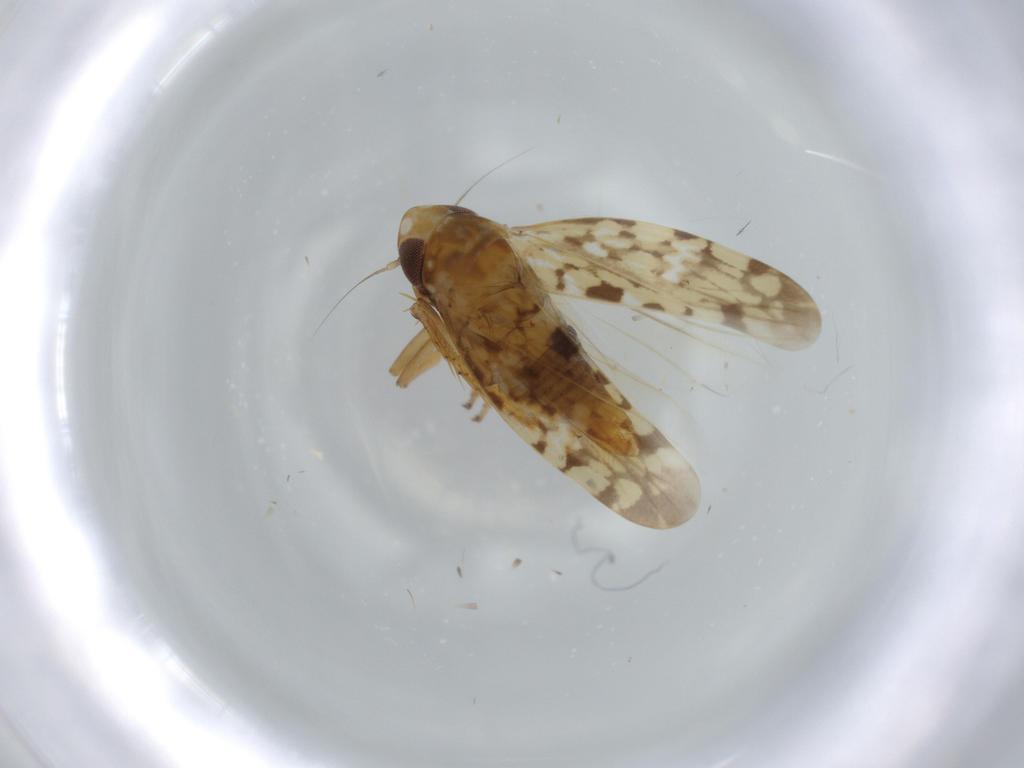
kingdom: Animalia
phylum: Arthropoda
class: Insecta
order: Hemiptera
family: Cicadellidae
